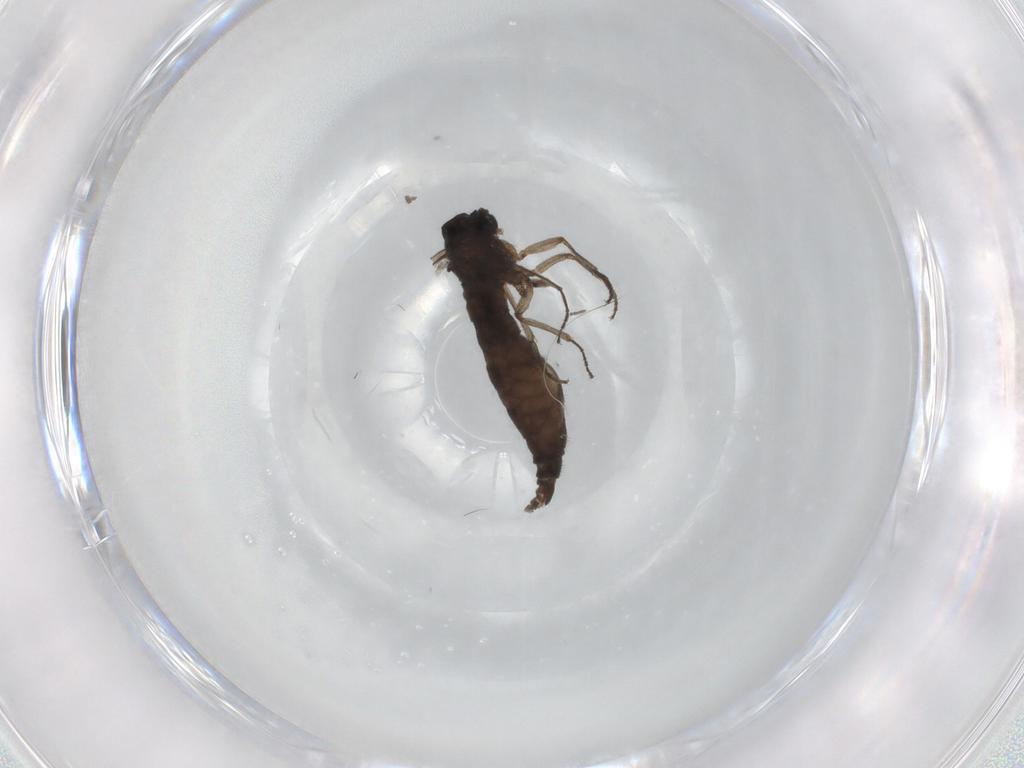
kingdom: Animalia
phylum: Arthropoda
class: Insecta
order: Diptera
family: Sciaridae
